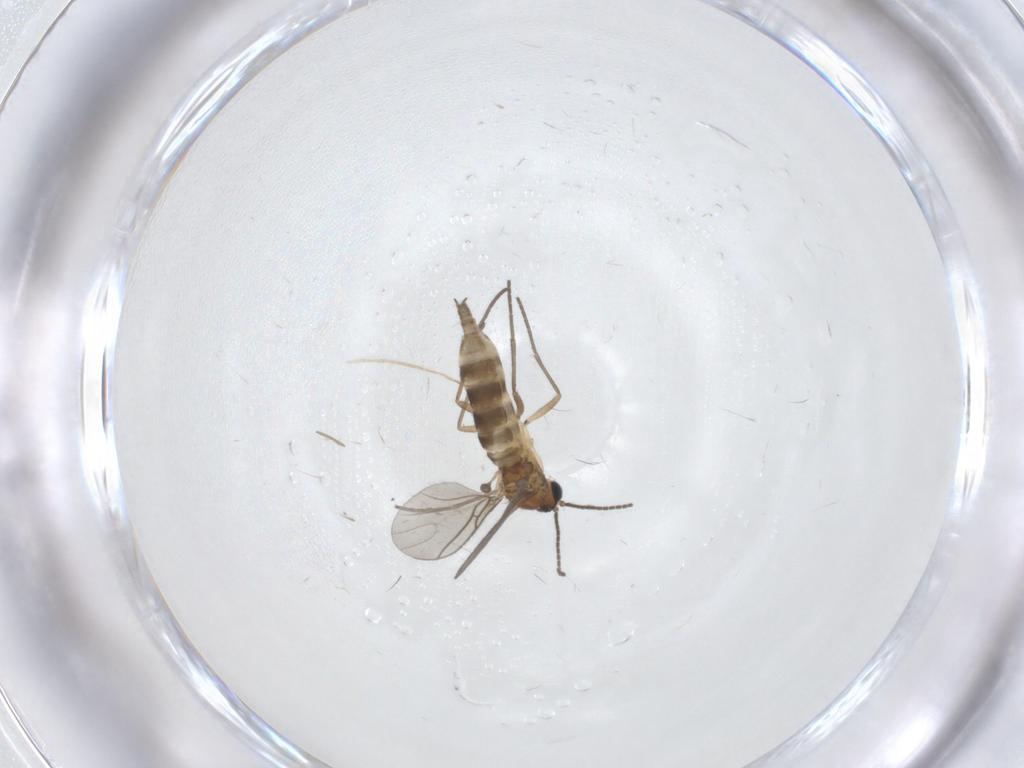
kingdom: Animalia
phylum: Arthropoda
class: Insecta
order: Diptera
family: Sciaridae
